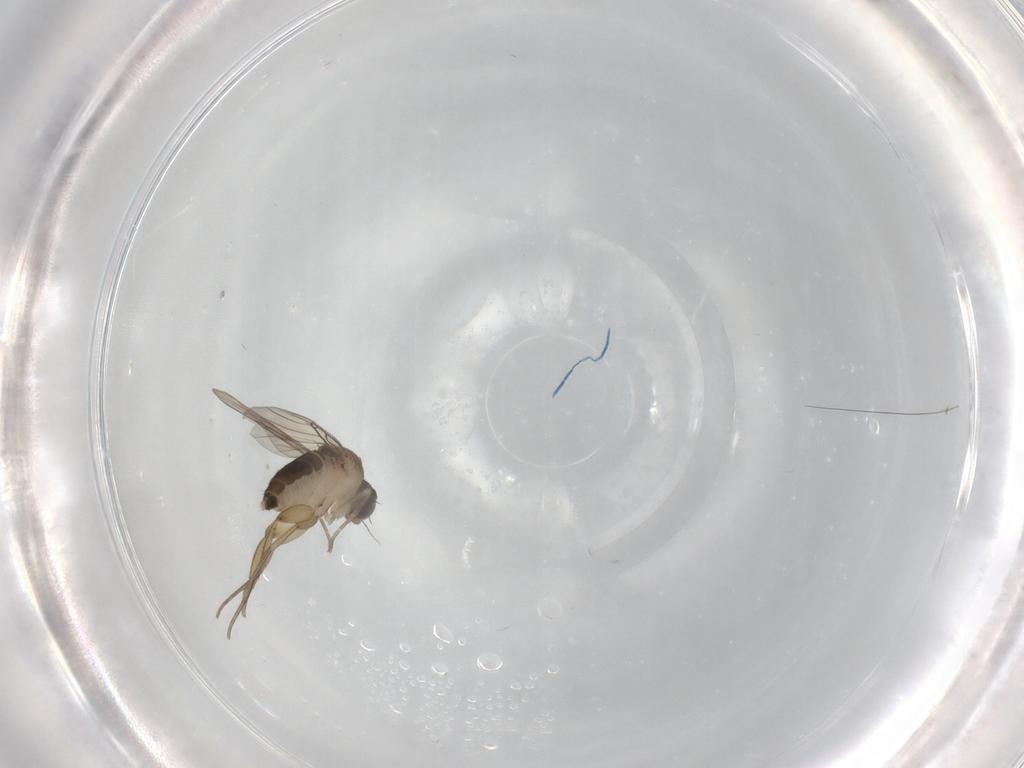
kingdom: Animalia
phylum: Arthropoda
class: Insecta
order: Diptera
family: Phoridae
